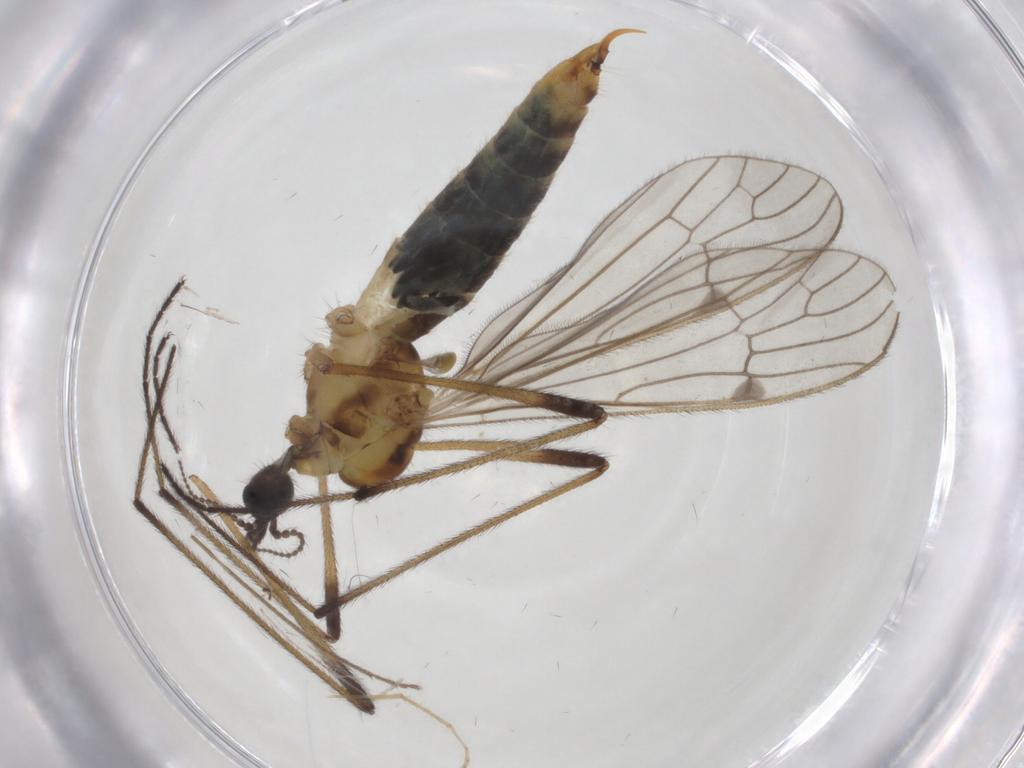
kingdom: Animalia
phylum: Arthropoda
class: Insecta
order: Diptera
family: Limoniidae
